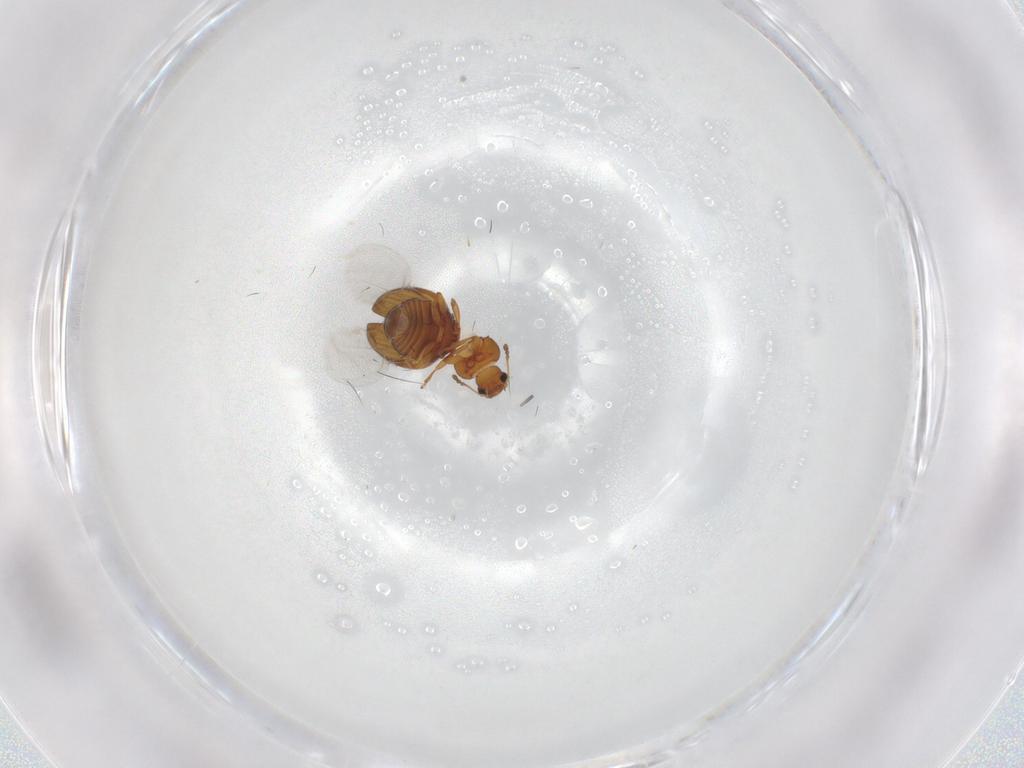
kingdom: Animalia
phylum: Arthropoda
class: Insecta
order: Coleoptera
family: Latridiidae
